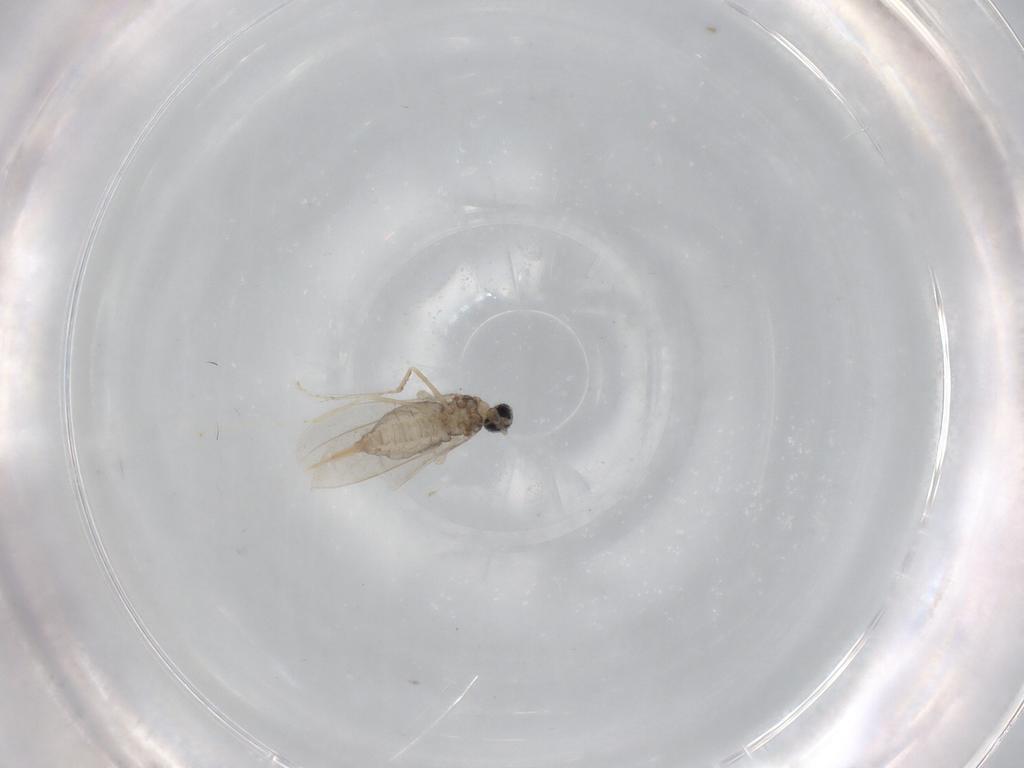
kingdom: Animalia
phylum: Arthropoda
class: Insecta
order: Diptera
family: Cecidomyiidae
